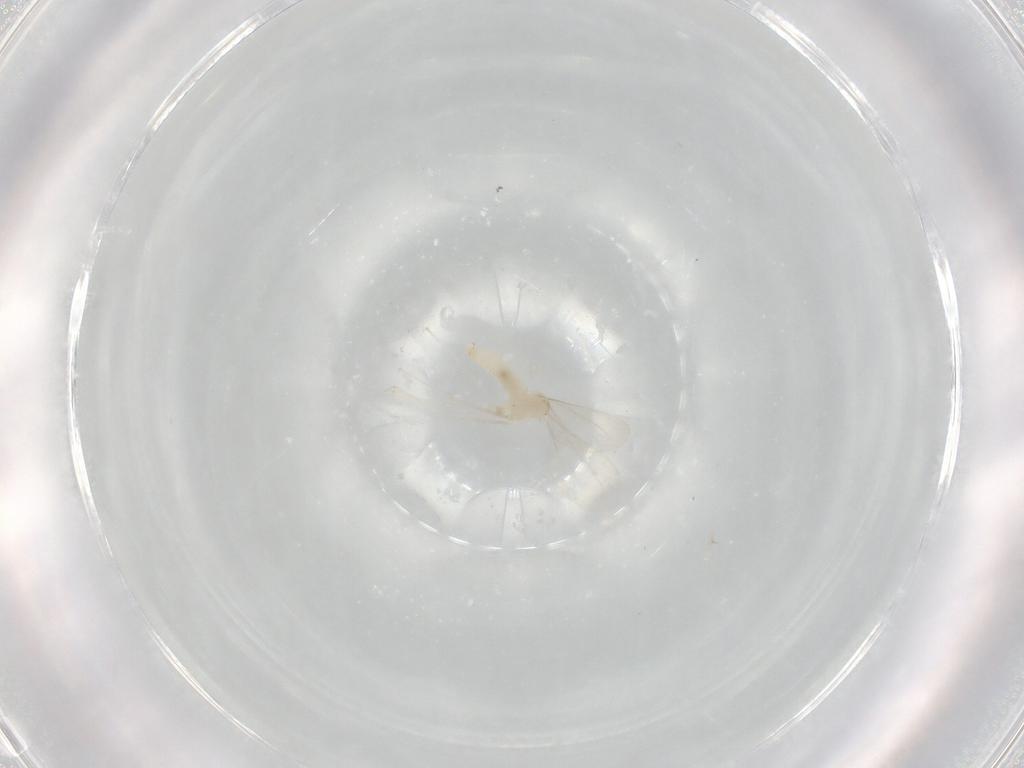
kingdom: Animalia
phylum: Arthropoda
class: Insecta
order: Diptera
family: Cecidomyiidae
